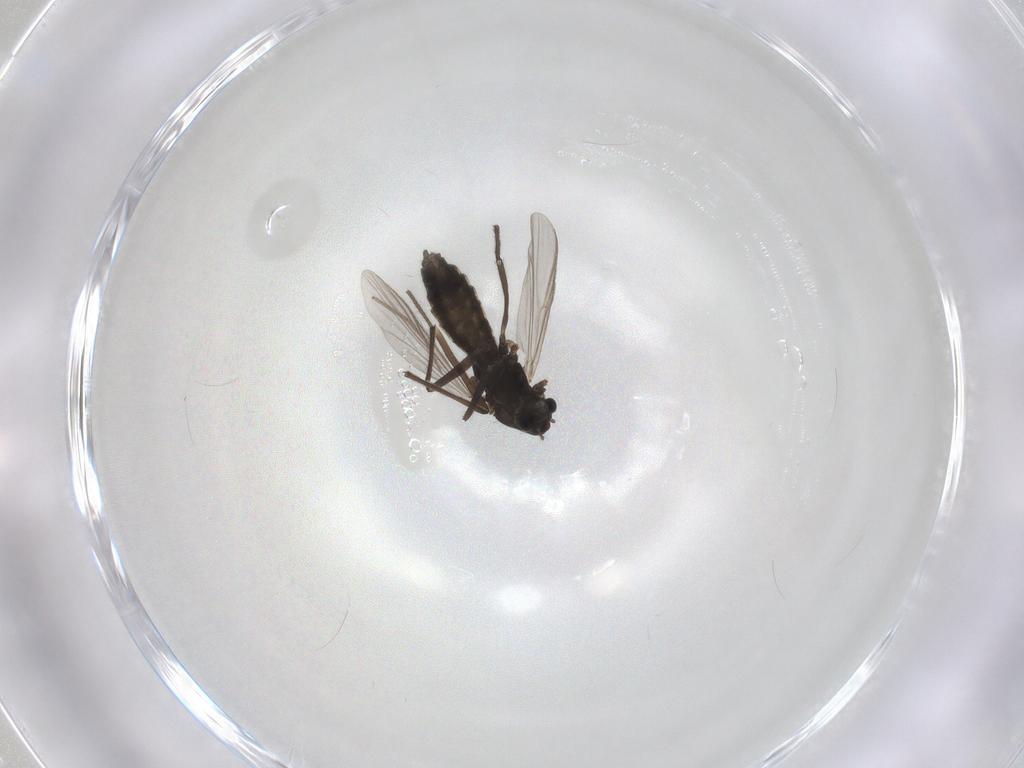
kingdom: Animalia
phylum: Arthropoda
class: Insecta
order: Diptera
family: Chironomidae
